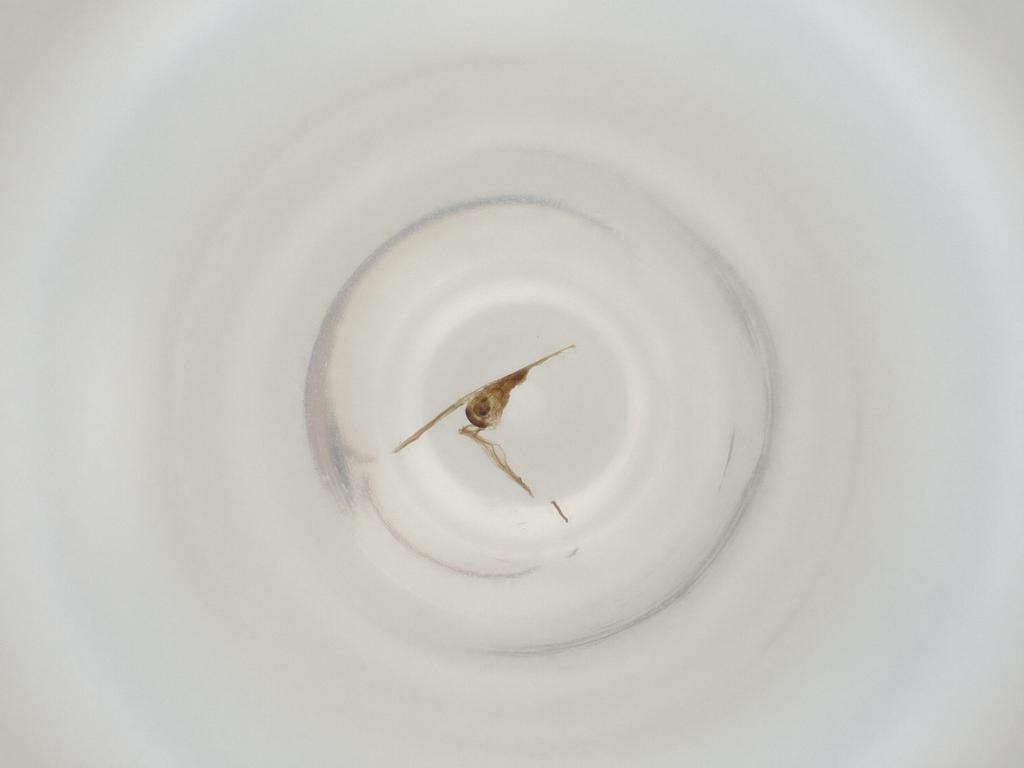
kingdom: Animalia
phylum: Arthropoda
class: Insecta
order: Diptera
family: Cecidomyiidae
